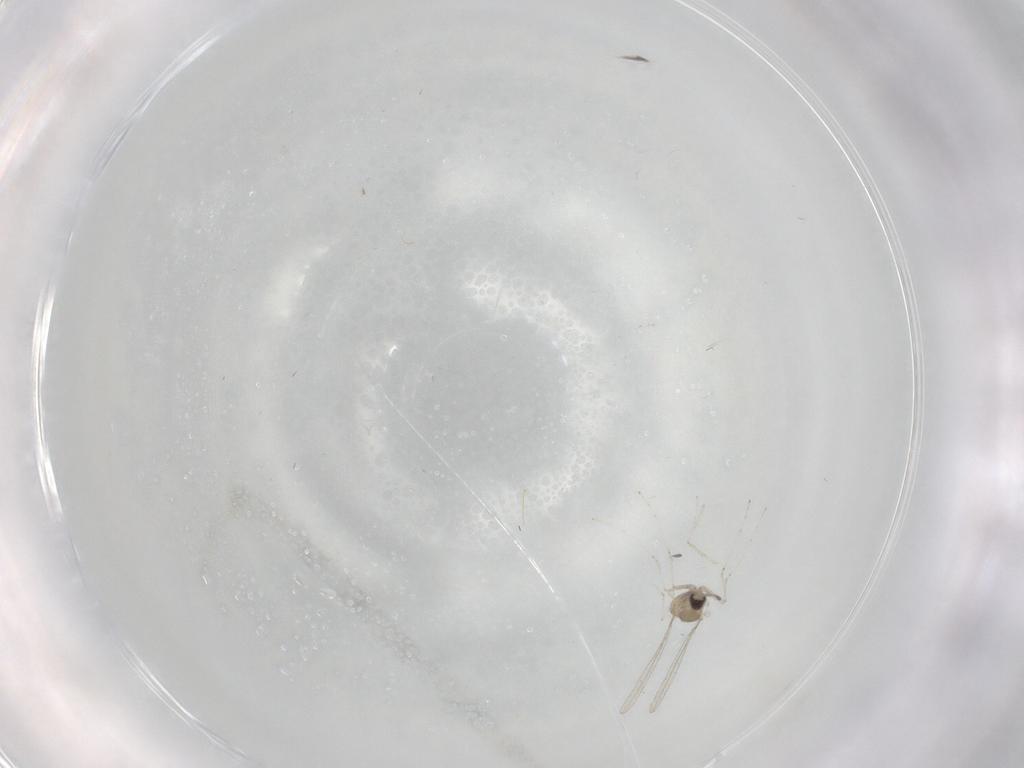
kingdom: Animalia
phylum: Arthropoda
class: Insecta
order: Diptera
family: Cecidomyiidae
